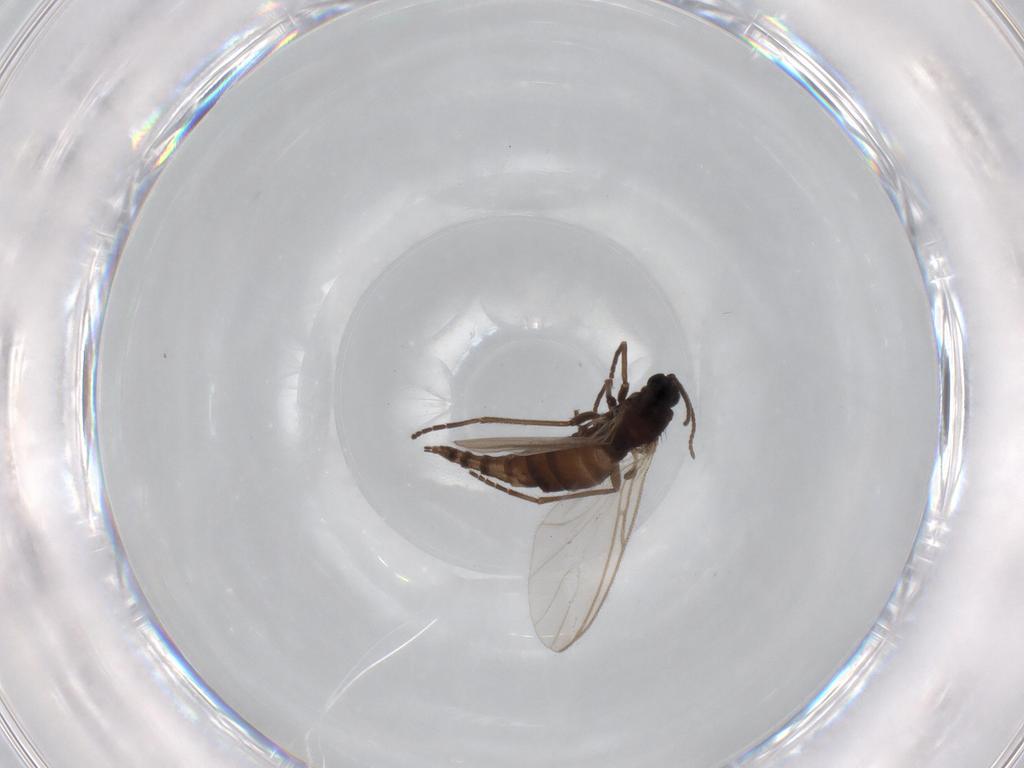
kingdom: Animalia
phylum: Arthropoda
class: Insecta
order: Diptera
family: Sciaridae
